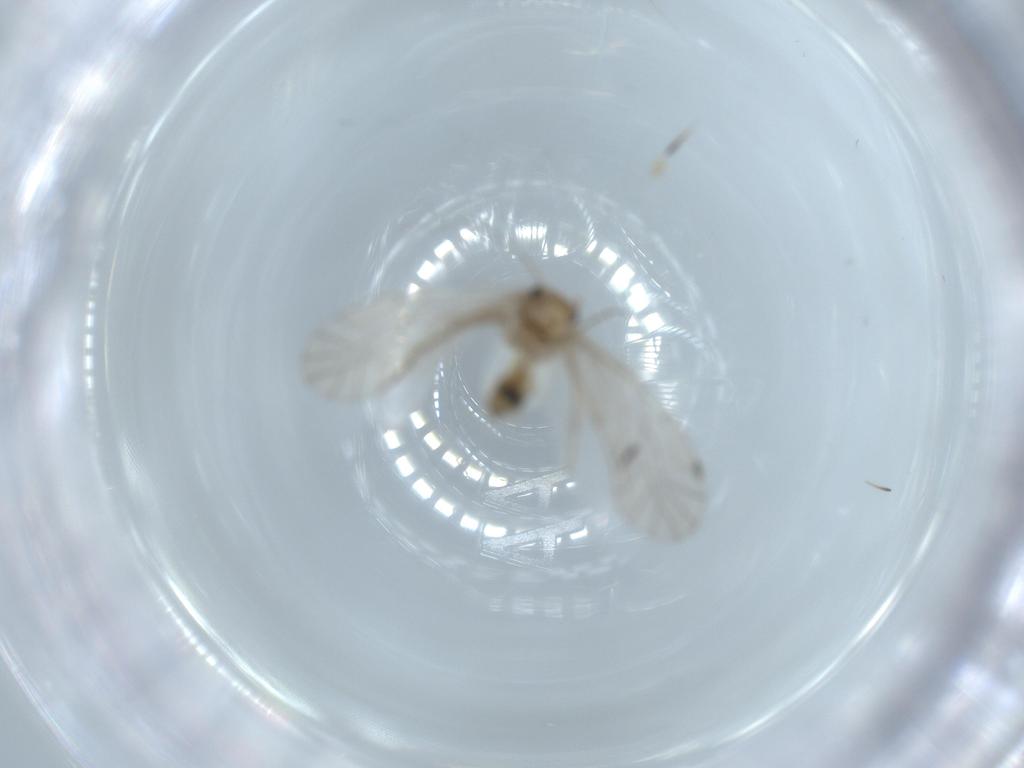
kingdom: Animalia
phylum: Arthropoda
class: Insecta
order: Psocodea
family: Lachesillidae
